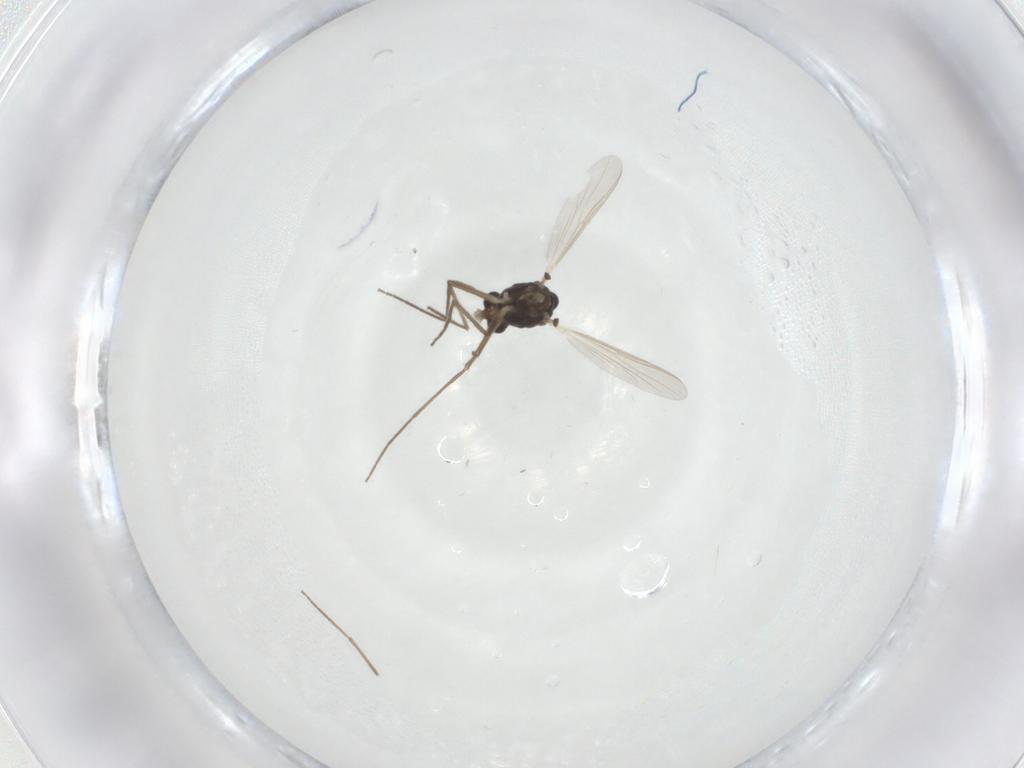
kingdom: Animalia
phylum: Arthropoda
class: Insecta
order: Diptera
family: Chironomidae
